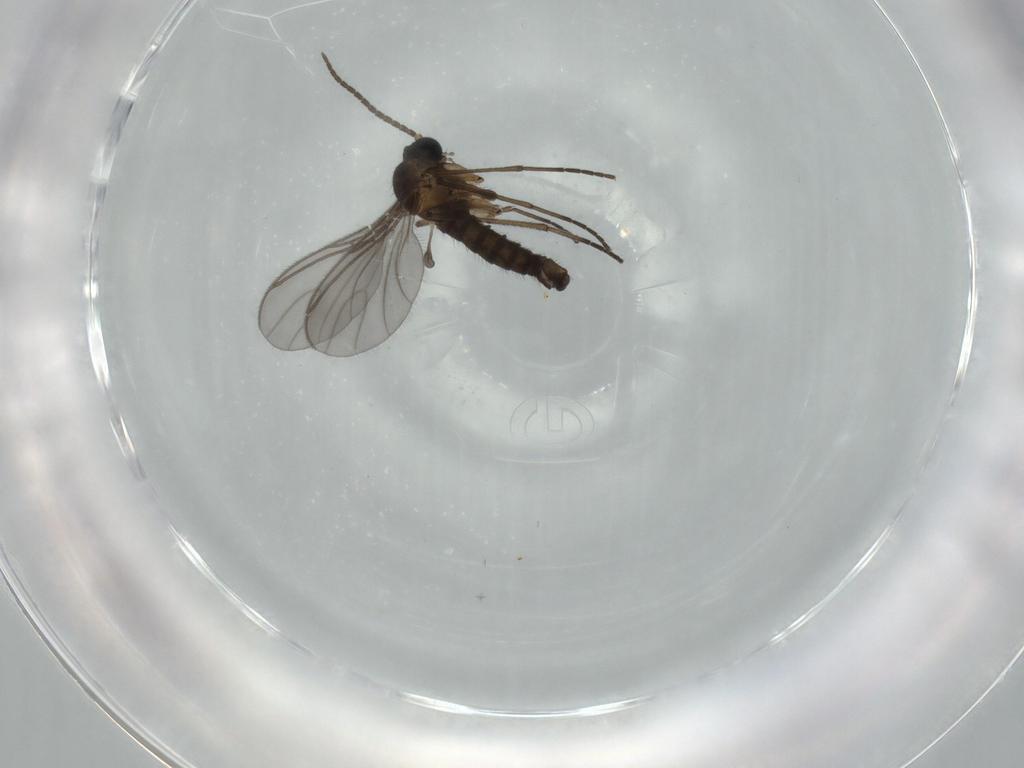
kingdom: Animalia
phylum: Arthropoda
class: Insecta
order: Diptera
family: Sciaridae
